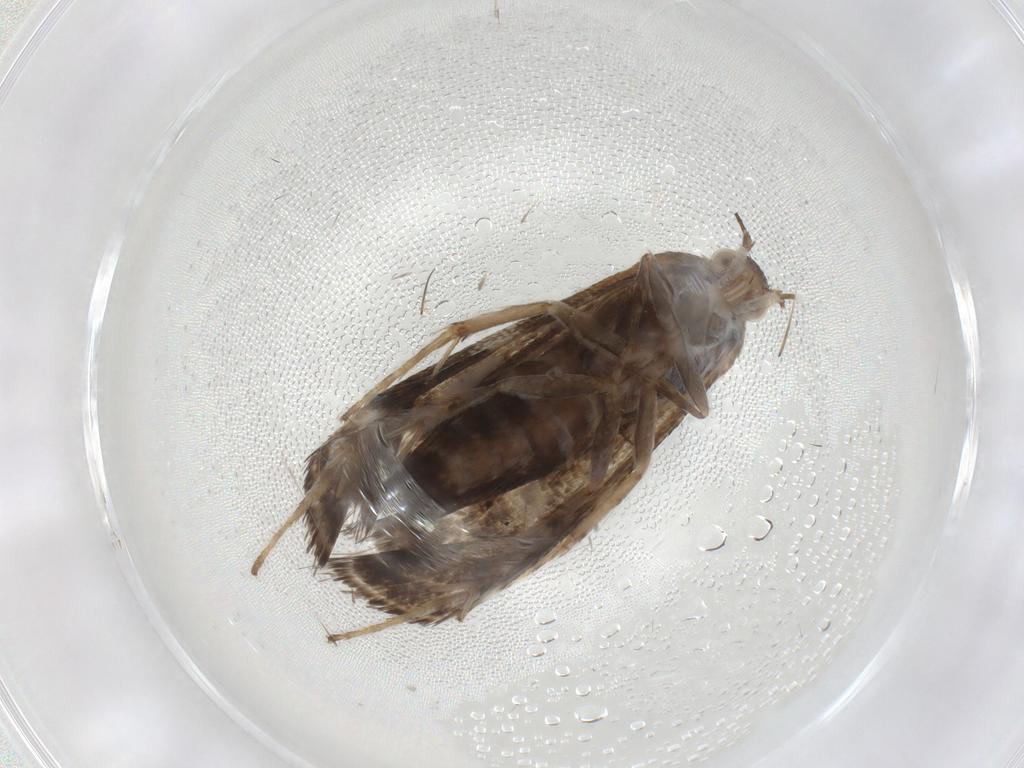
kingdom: Animalia
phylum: Arthropoda
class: Insecta
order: Lepidoptera
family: Choreutidae
